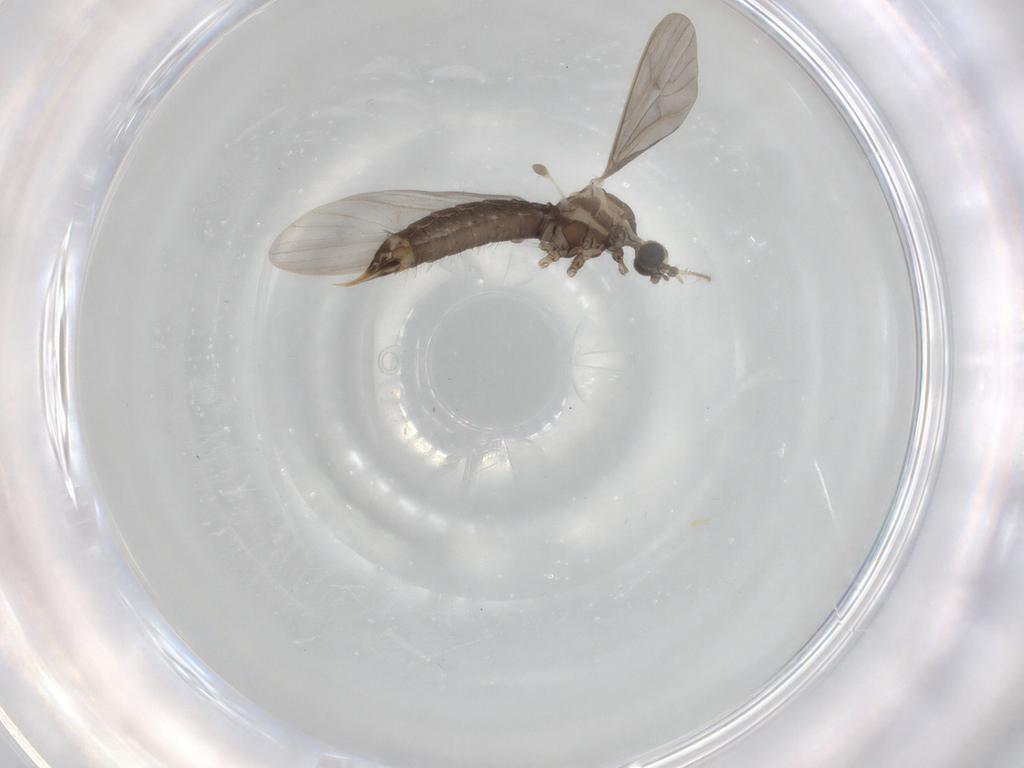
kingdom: Animalia
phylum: Arthropoda
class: Insecta
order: Diptera
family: Limoniidae
